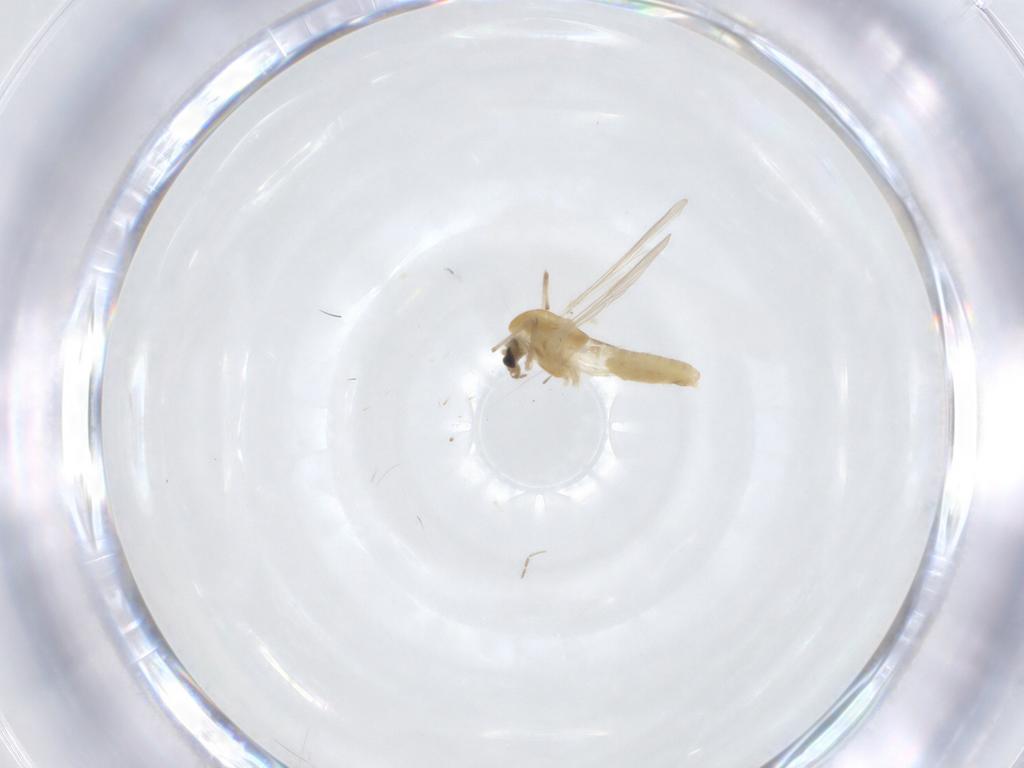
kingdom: Animalia
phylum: Arthropoda
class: Insecta
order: Diptera
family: Chironomidae
